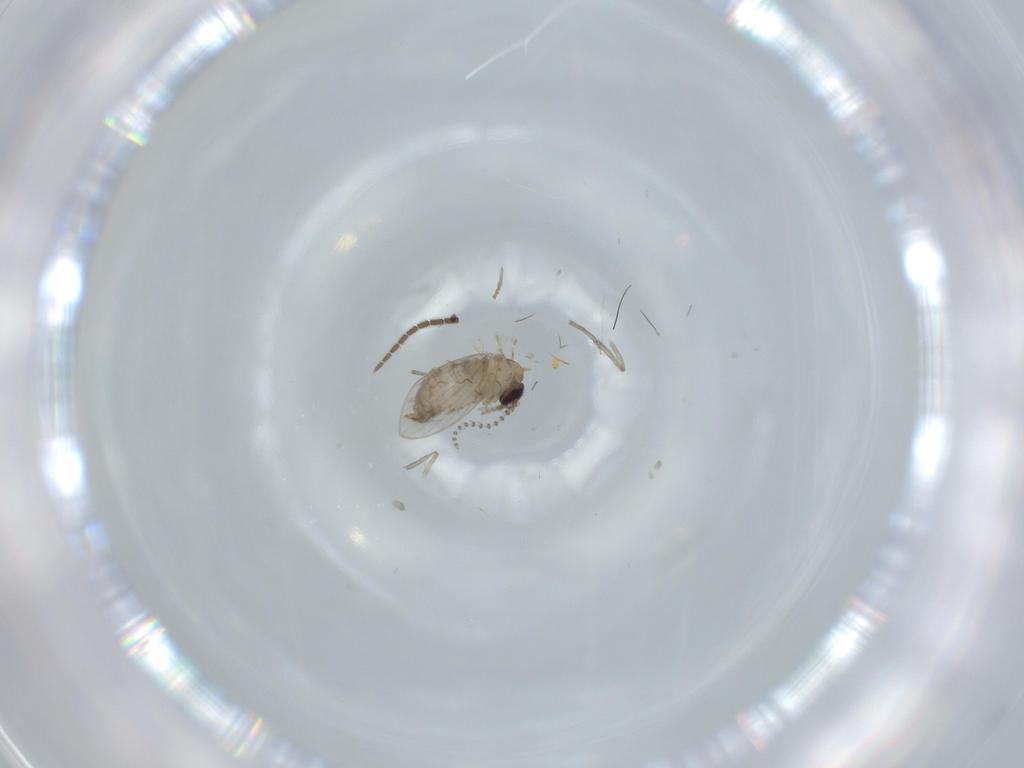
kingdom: Animalia
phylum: Arthropoda
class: Insecta
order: Diptera
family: Sciaridae
